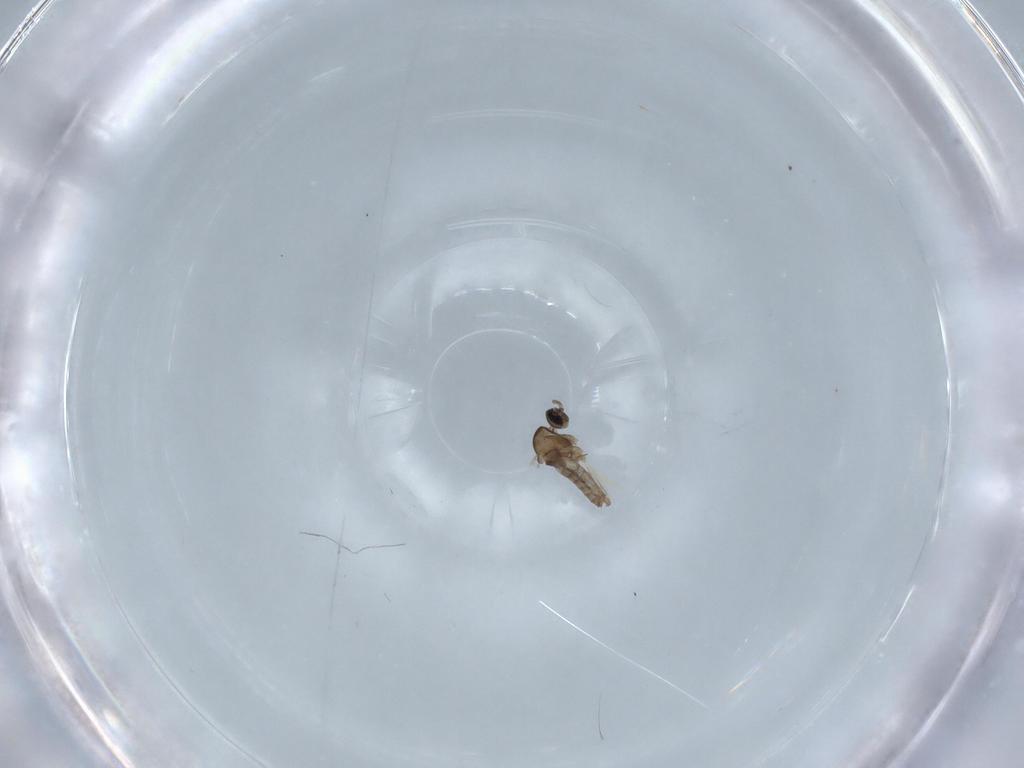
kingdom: Animalia
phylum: Arthropoda
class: Insecta
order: Diptera
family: Cecidomyiidae
